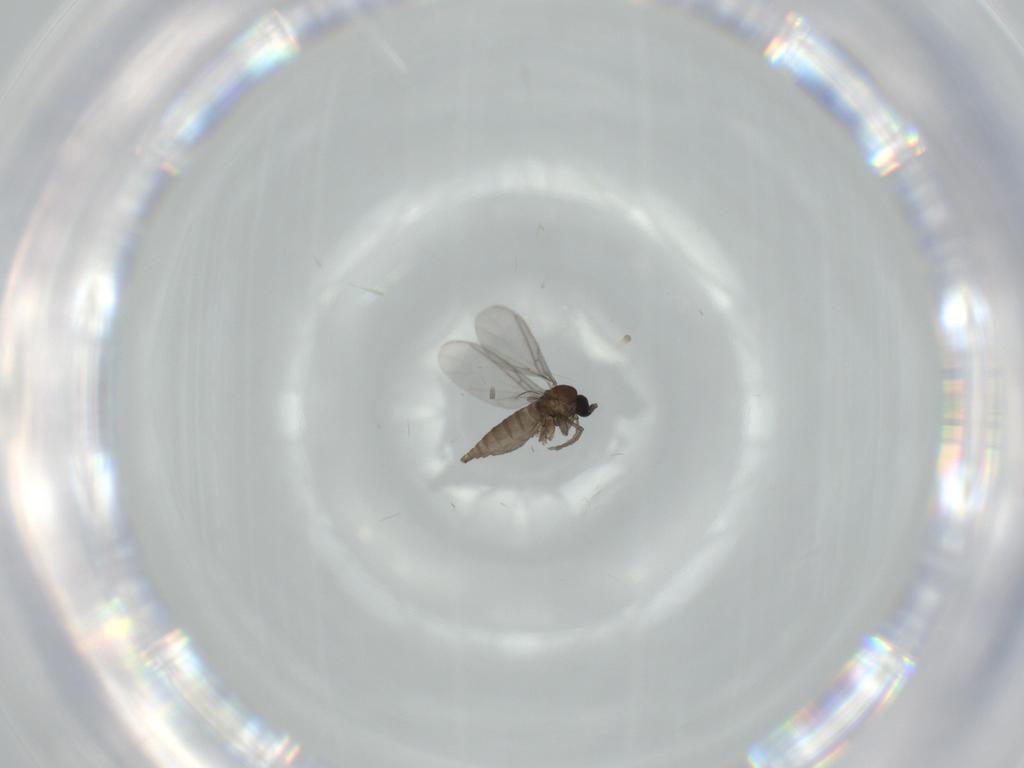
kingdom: Animalia
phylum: Arthropoda
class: Insecta
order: Diptera
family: Sciaridae
